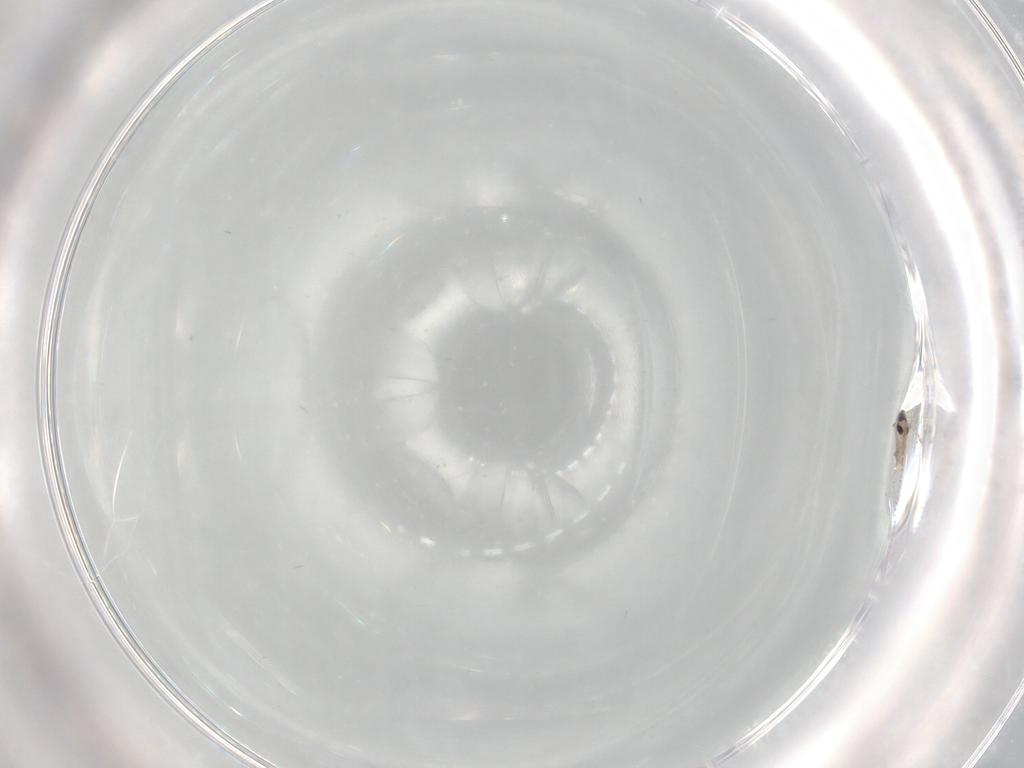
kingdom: Animalia
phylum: Arthropoda
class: Insecta
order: Diptera
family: Cecidomyiidae
